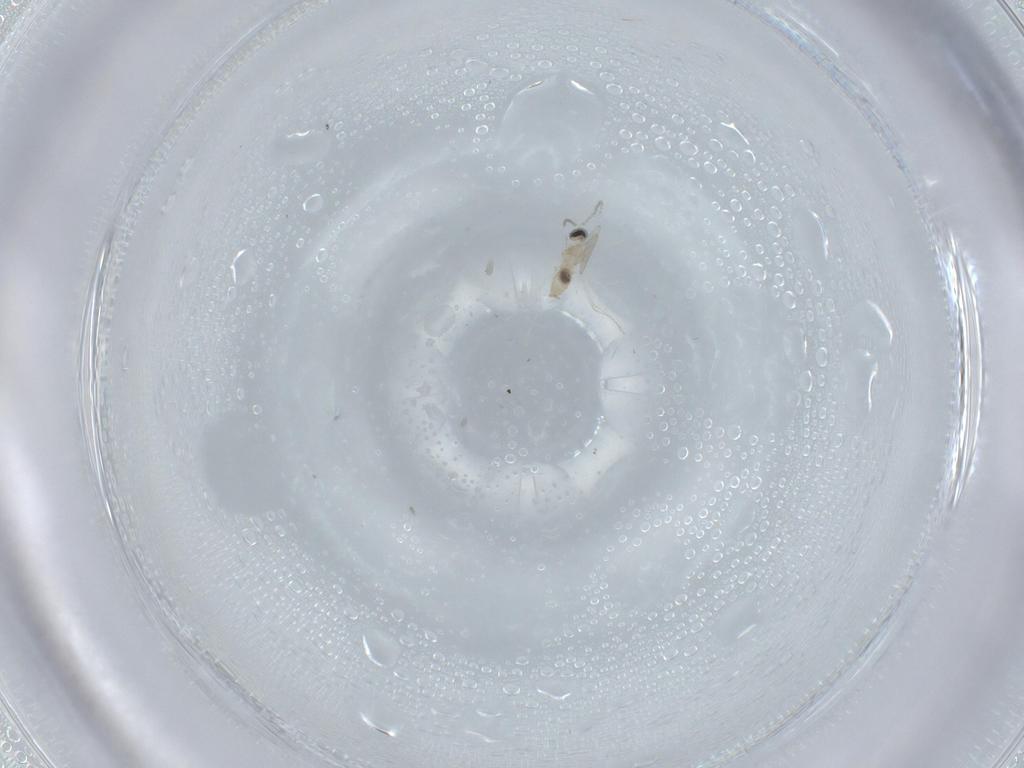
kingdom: Animalia
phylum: Arthropoda
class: Insecta
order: Diptera
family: Cecidomyiidae
